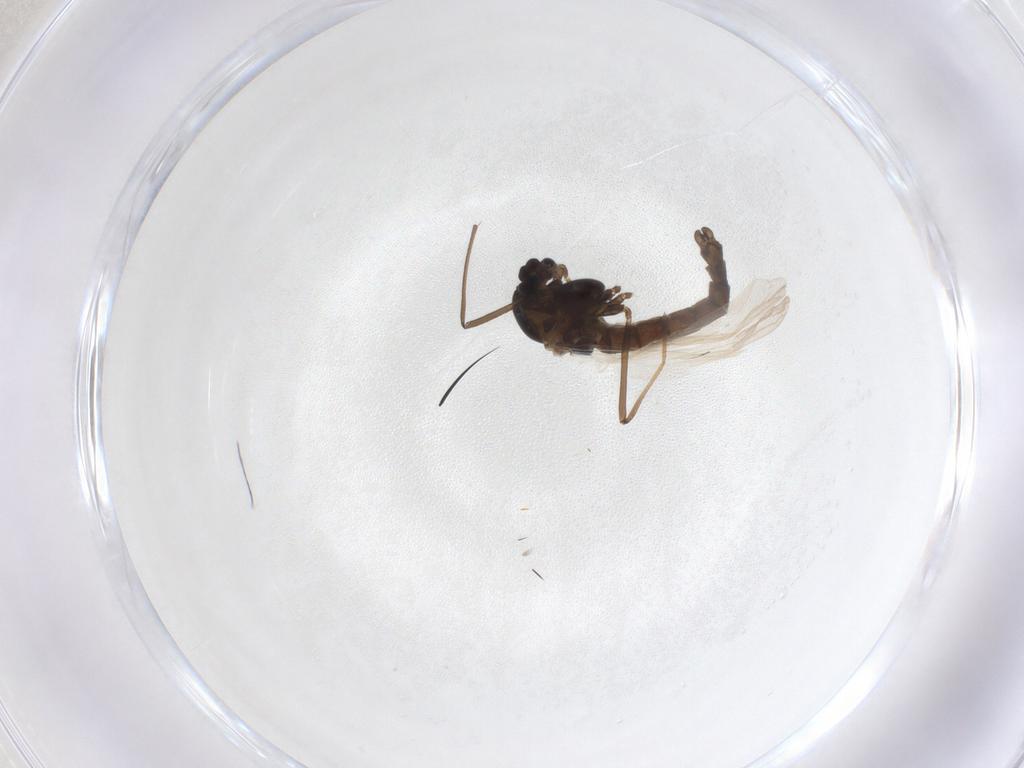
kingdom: Animalia
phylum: Arthropoda
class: Insecta
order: Diptera
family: Chironomidae
